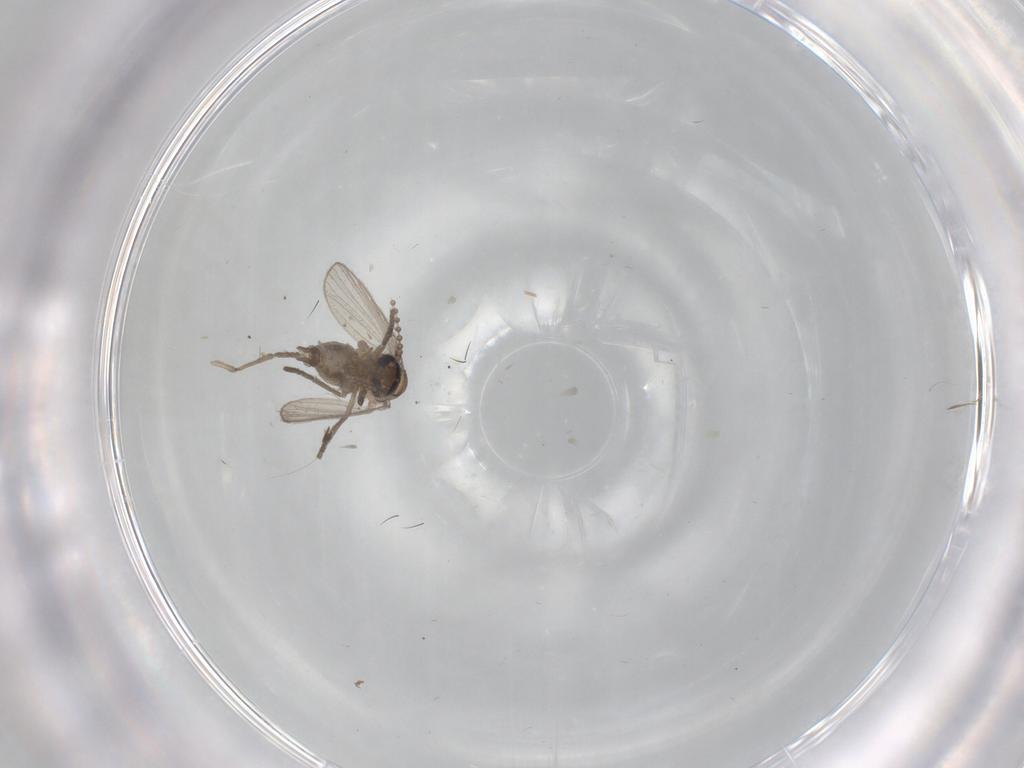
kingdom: Animalia
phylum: Arthropoda
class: Insecta
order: Diptera
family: Psychodidae
